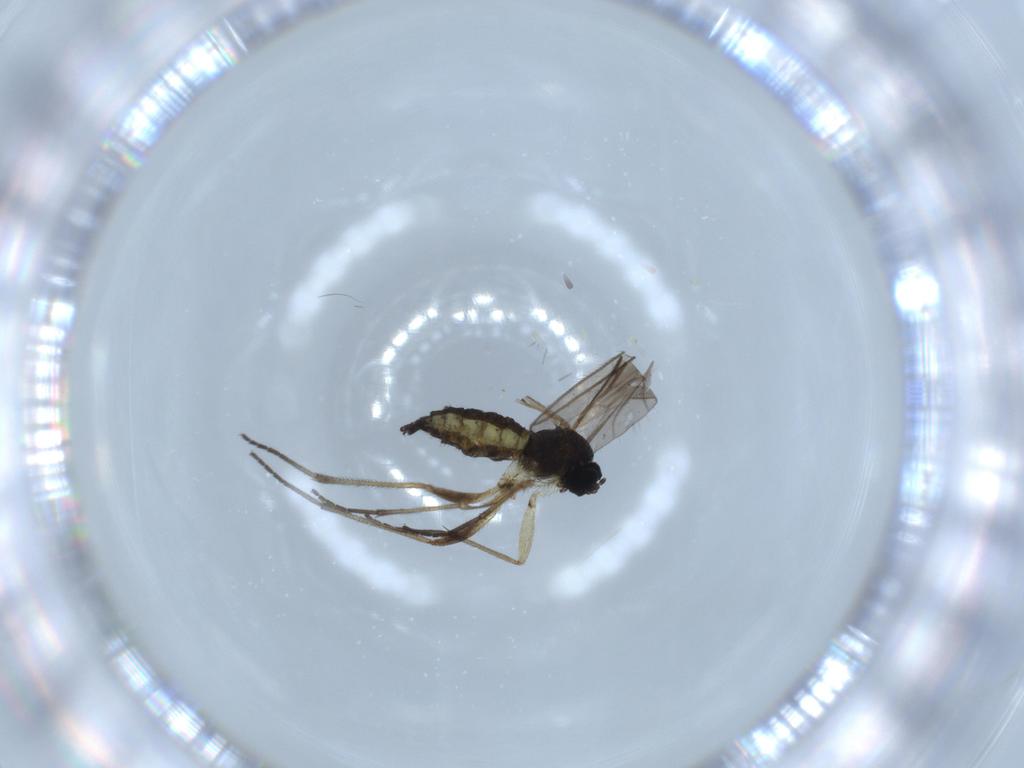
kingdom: Animalia
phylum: Arthropoda
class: Insecta
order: Diptera
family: Sciaridae
